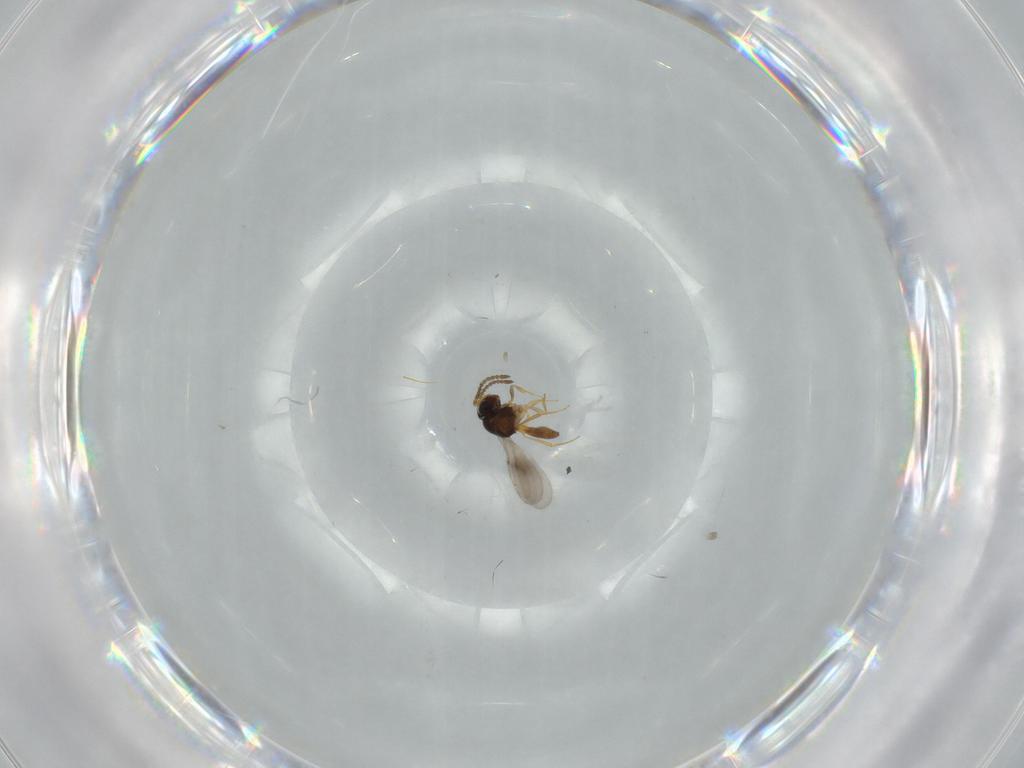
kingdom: Animalia
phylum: Arthropoda
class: Insecta
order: Hymenoptera
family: Scelionidae
